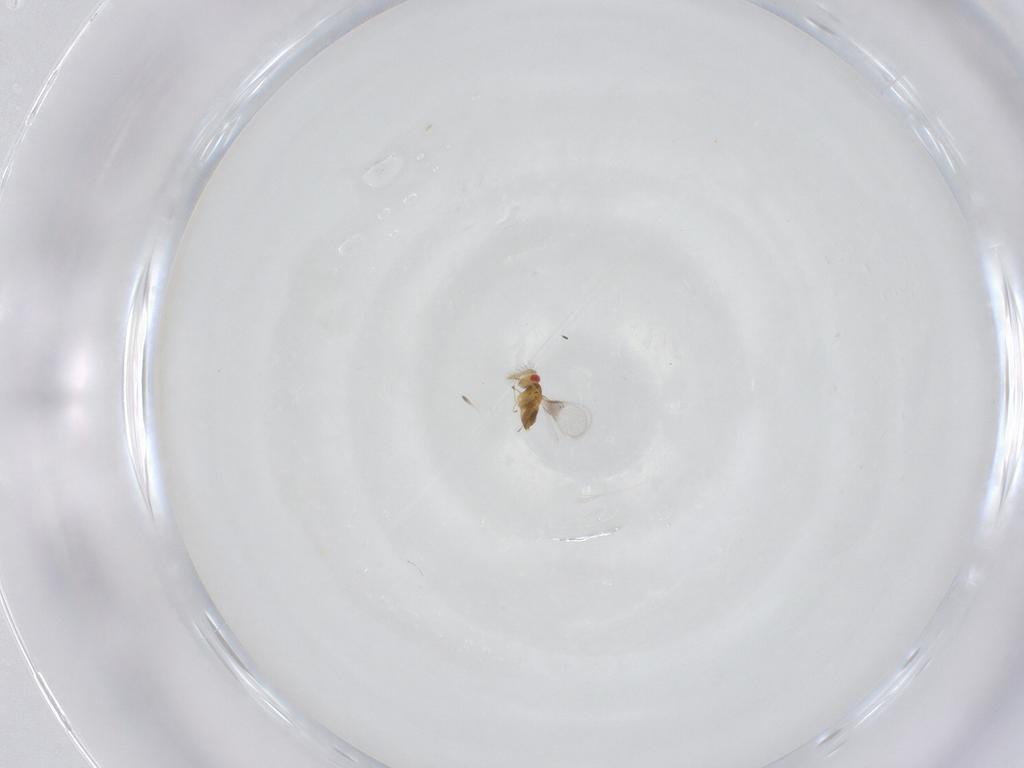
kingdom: Animalia
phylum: Arthropoda
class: Insecta
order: Hymenoptera
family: Trichogrammatidae
